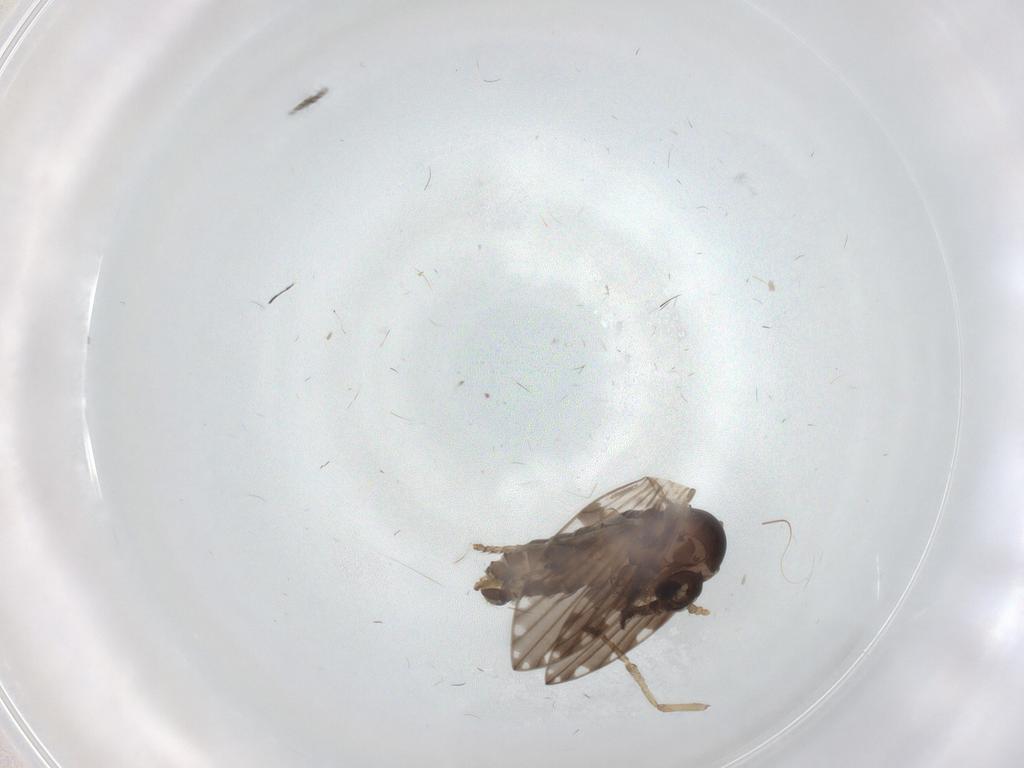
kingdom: Animalia
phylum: Arthropoda
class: Insecta
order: Diptera
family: Psychodidae
